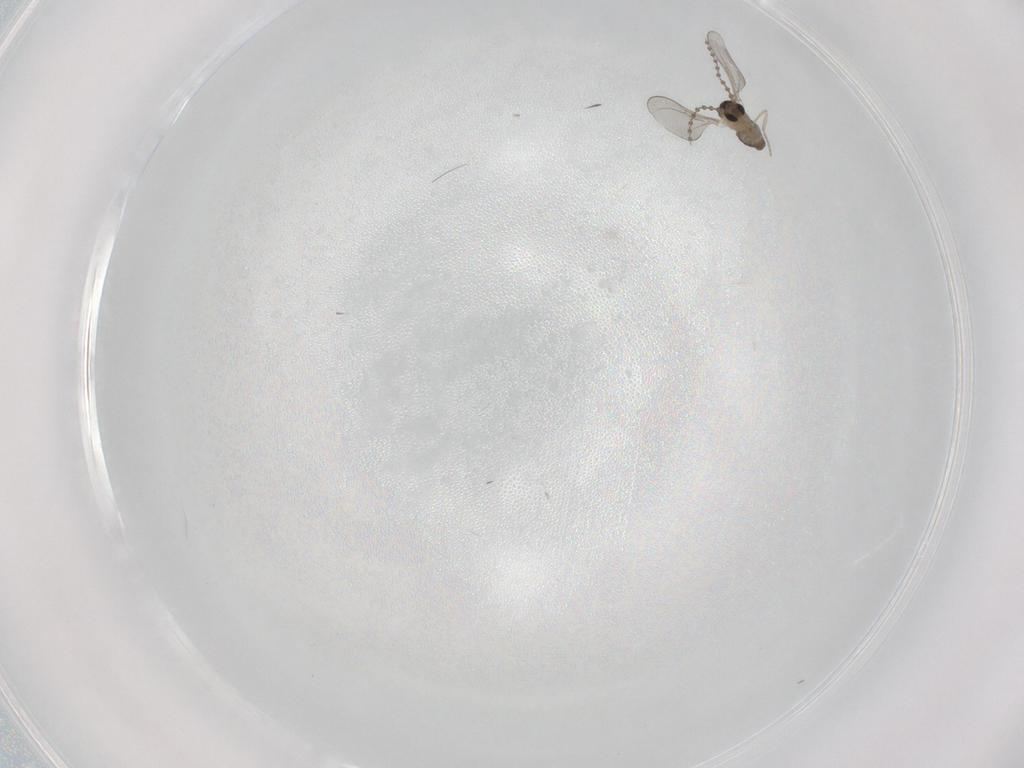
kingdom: Animalia
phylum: Arthropoda
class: Insecta
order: Diptera
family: Cecidomyiidae
